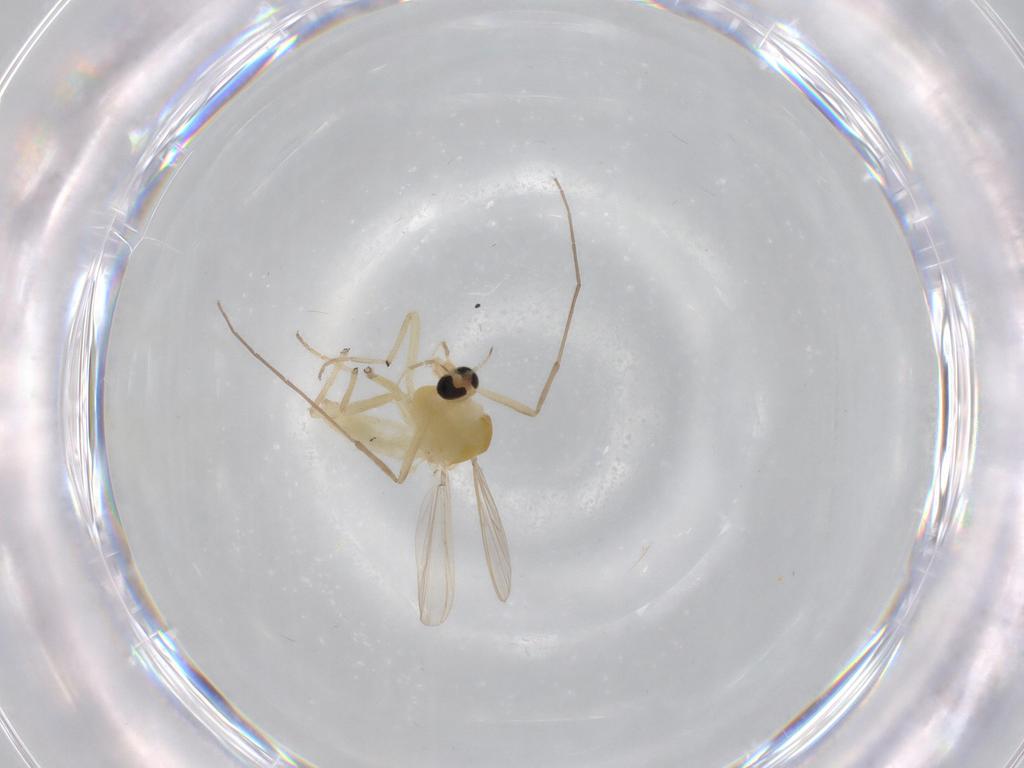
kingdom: Animalia
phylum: Arthropoda
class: Insecta
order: Diptera
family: Chironomidae
